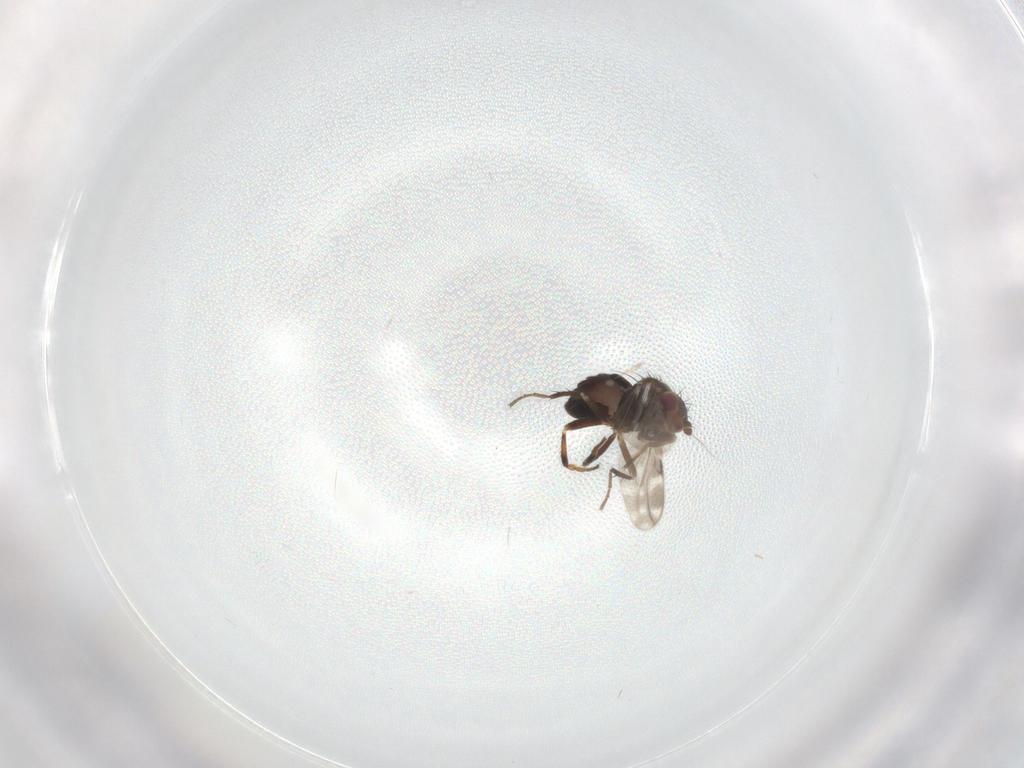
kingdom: Animalia
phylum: Arthropoda
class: Insecta
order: Diptera
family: Sphaeroceridae
